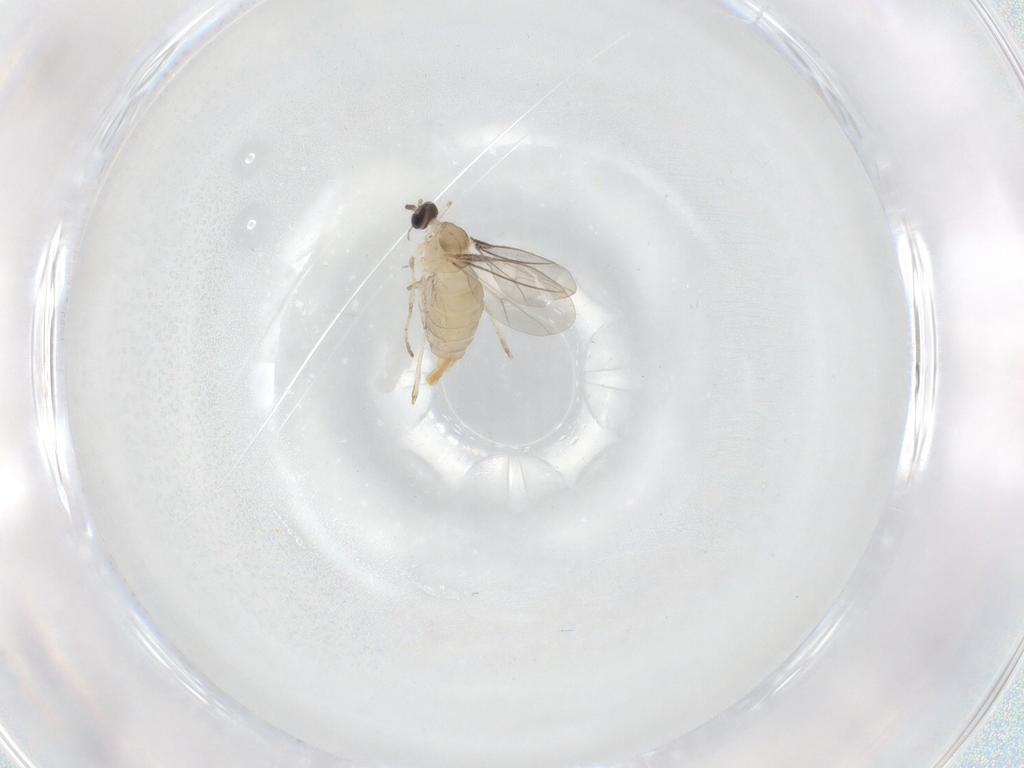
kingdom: Animalia
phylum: Arthropoda
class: Insecta
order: Diptera
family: Cecidomyiidae
